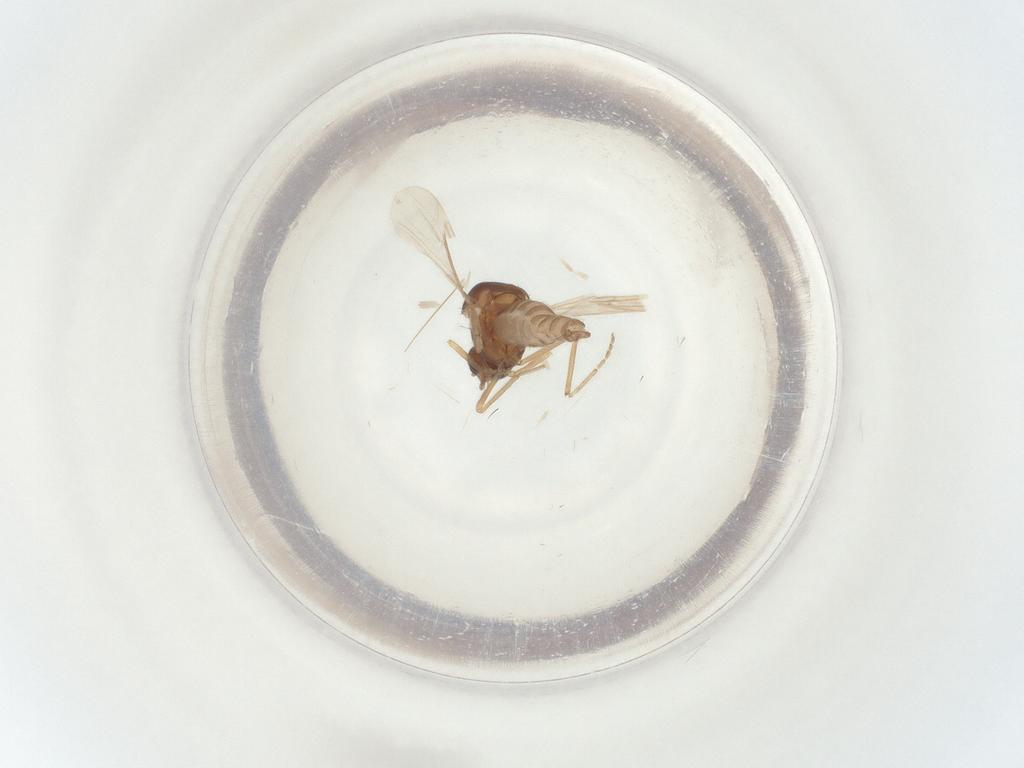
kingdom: Animalia
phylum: Arthropoda
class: Insecta
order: Diptera
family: Ceratopogonidae
